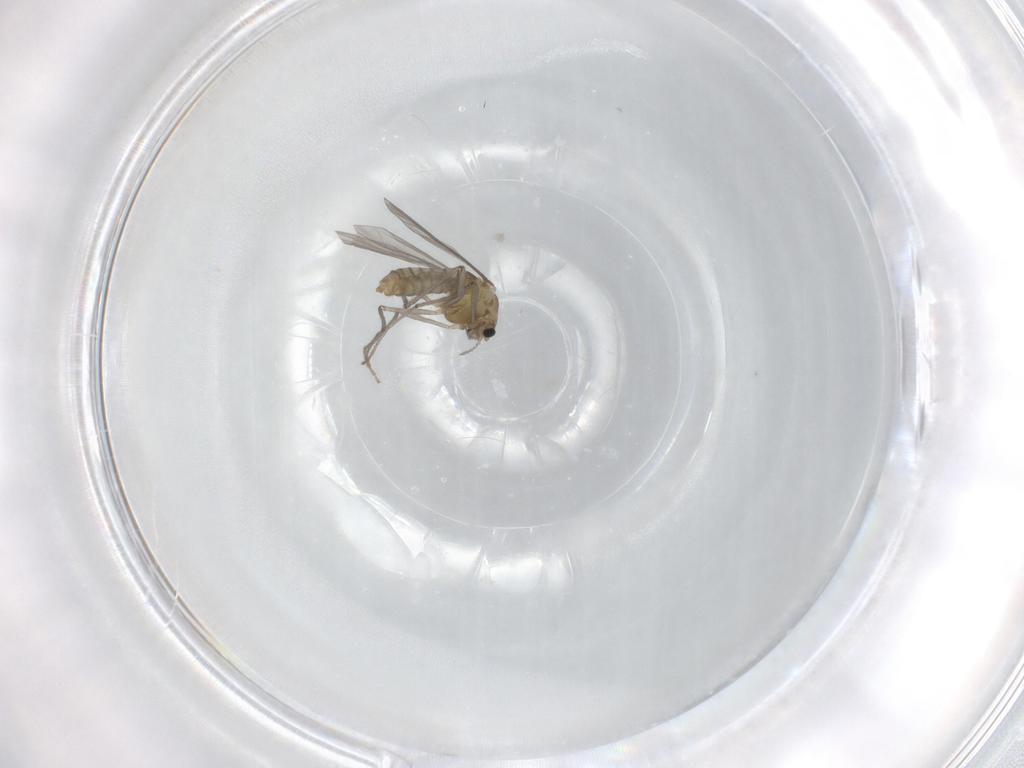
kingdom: Animalia
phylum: Arthropoda
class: Insecta
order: Diptera
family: Chironomidae
